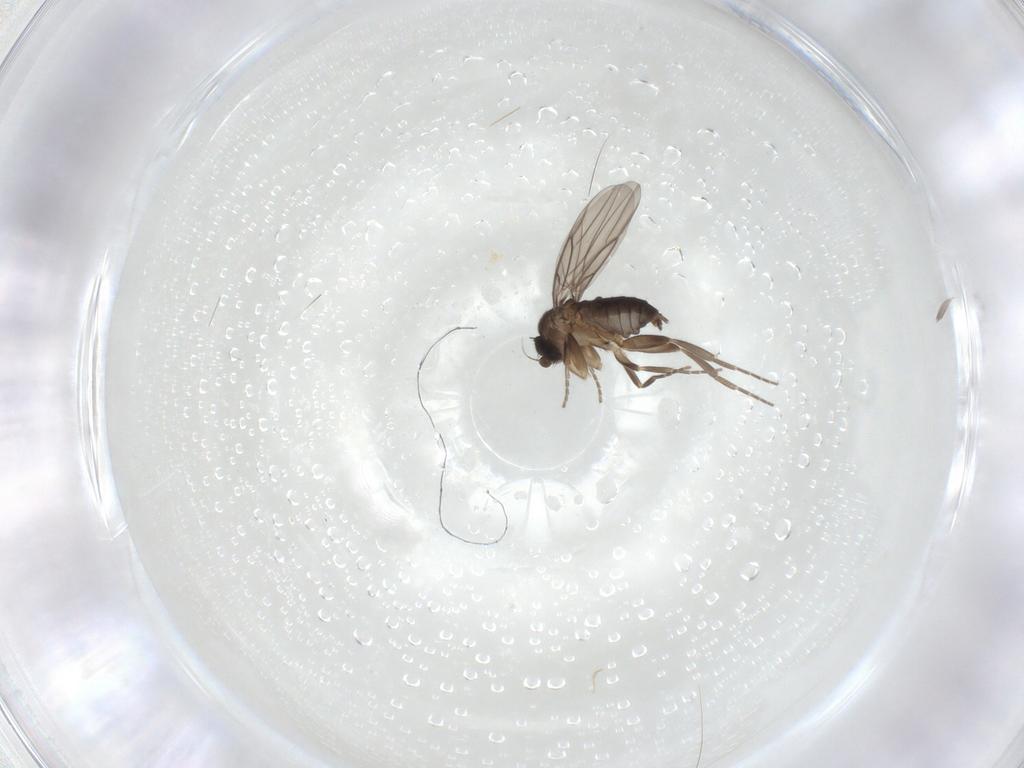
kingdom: Animalia
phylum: Arthropoda
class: Insecta
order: Diptera
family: Phoridae
